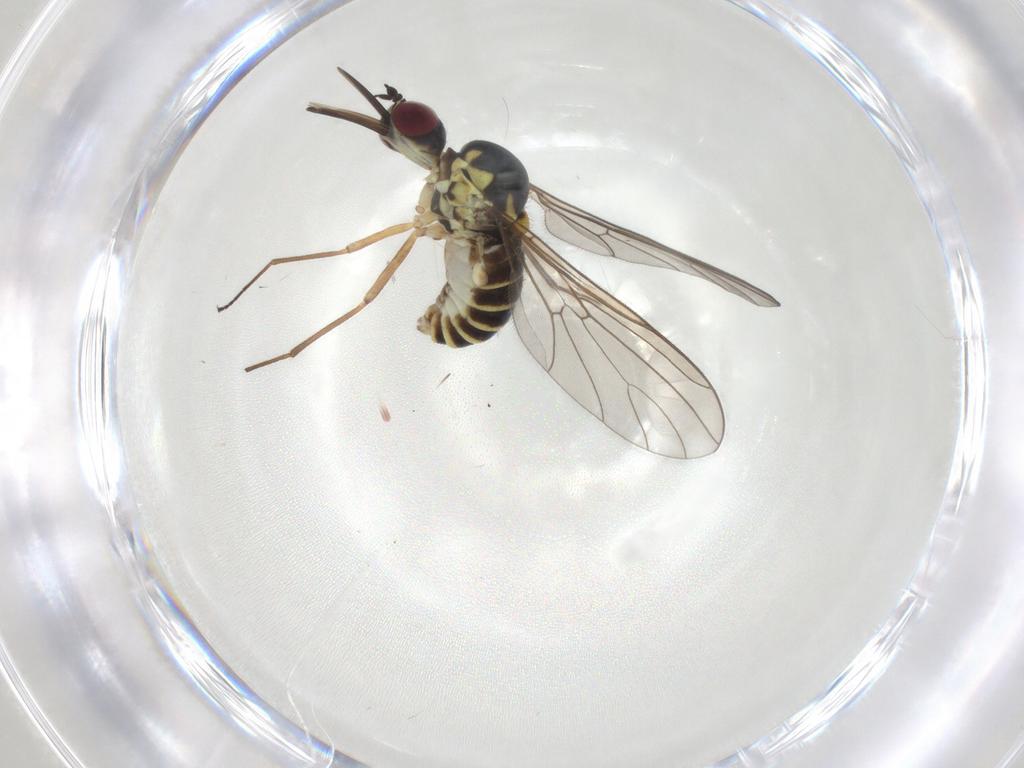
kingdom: Animalia
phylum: Arthropoda
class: Insecta
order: Diptera
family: Bombyliidae
